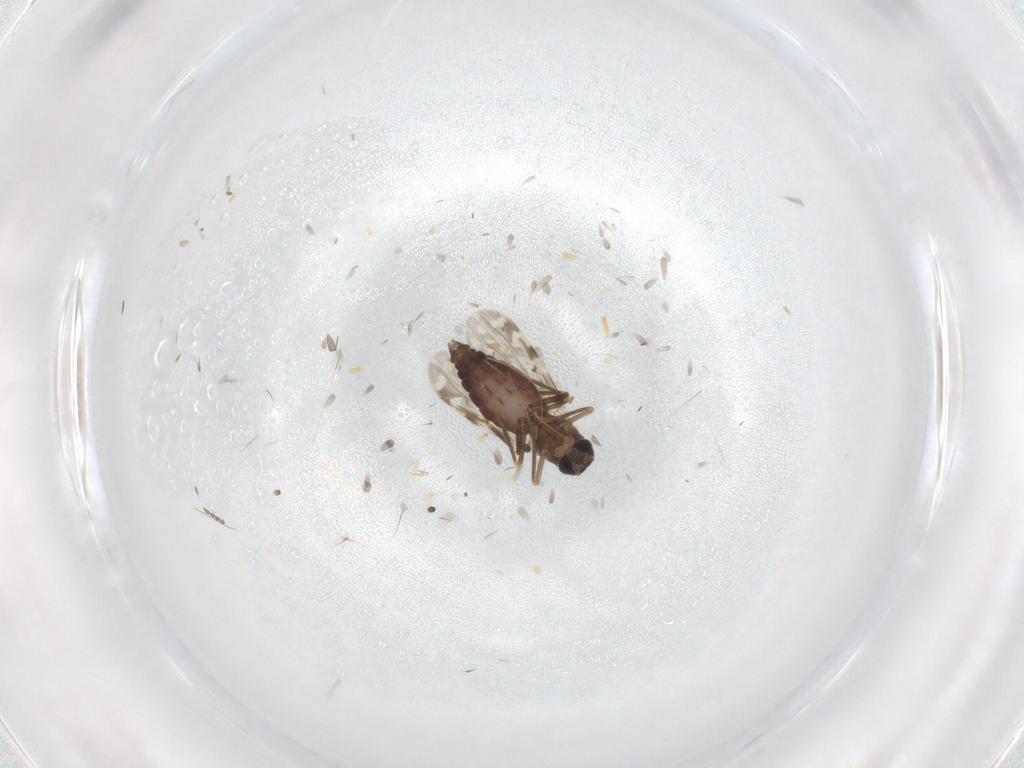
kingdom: Animalia
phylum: Arthropoda
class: Insecta
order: Diptera
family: Ceratopogonidae
